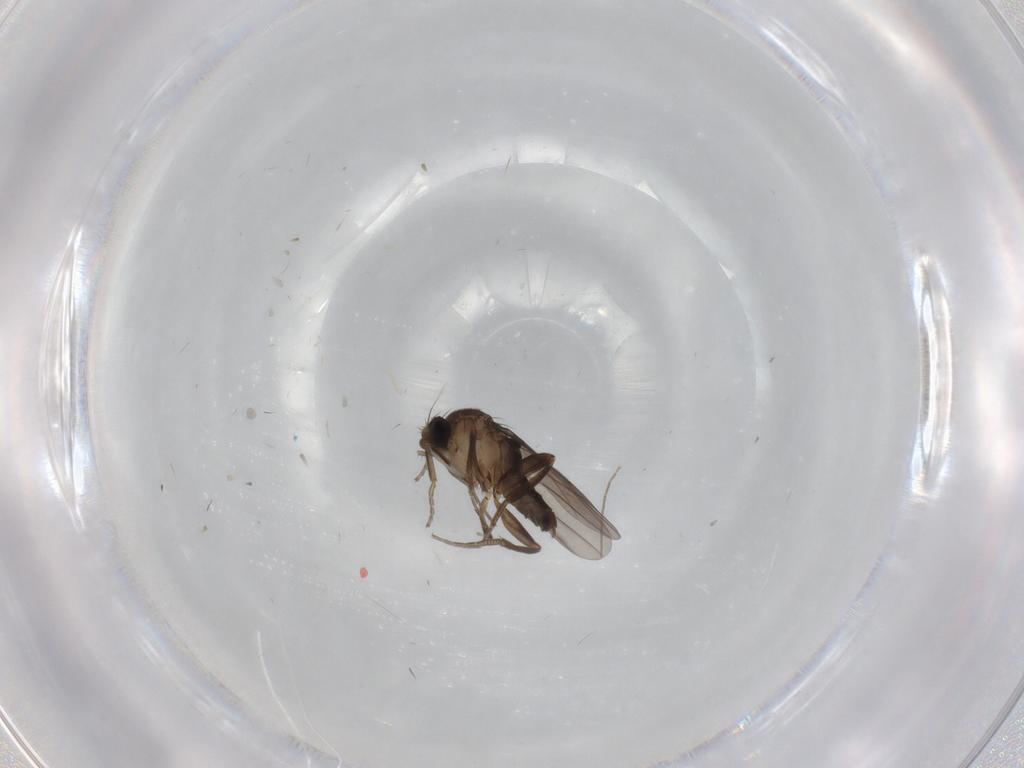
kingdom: Animalia
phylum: Arthropoda
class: Insecta
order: Diptera
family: Chironomidae
